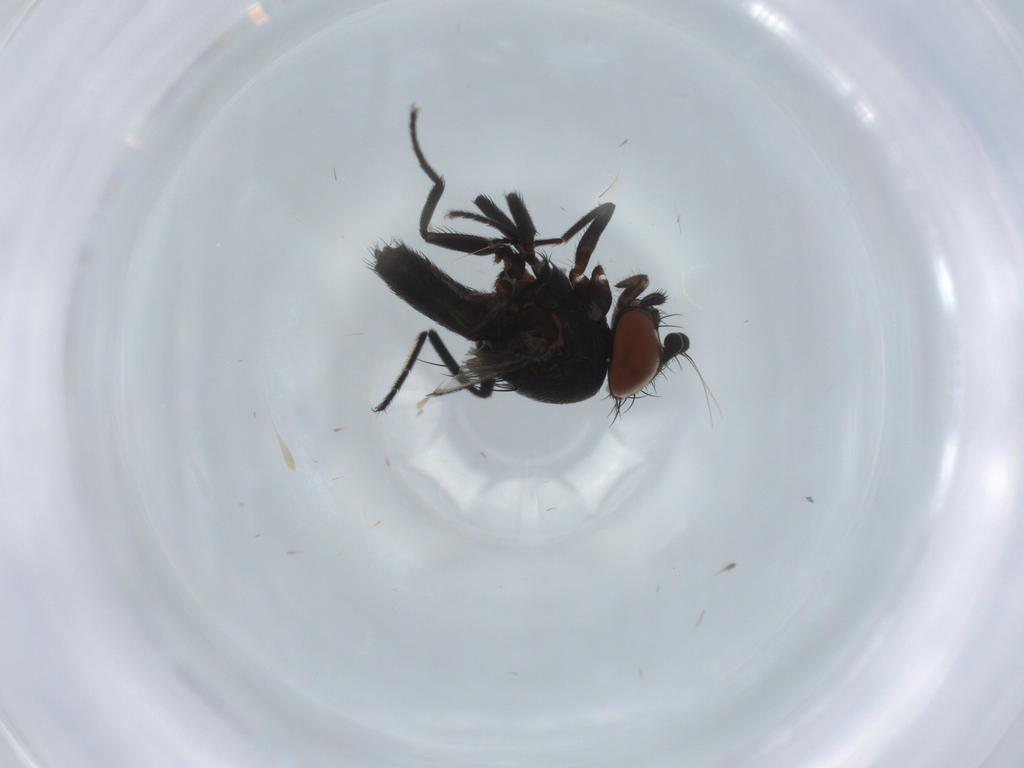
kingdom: Animalia
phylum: Arthropoda
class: Insecta
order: Diptera
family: Milichiidae
